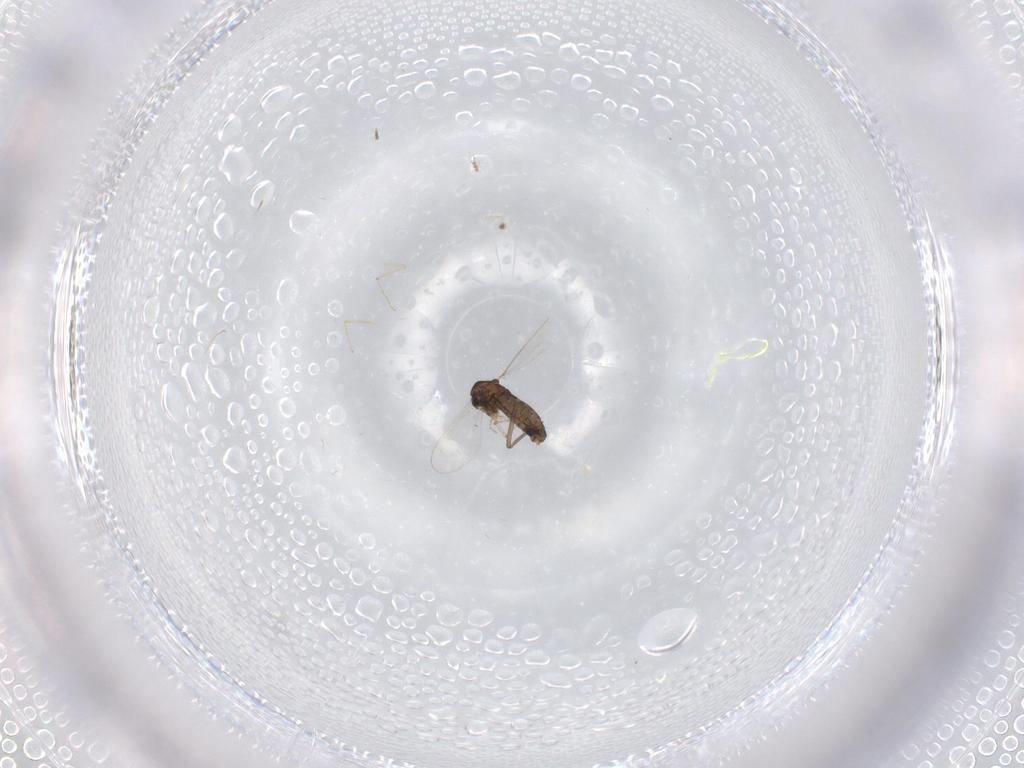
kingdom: Animalia
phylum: Arthropoda
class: Insecta
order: Diptera
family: Chironomidae
